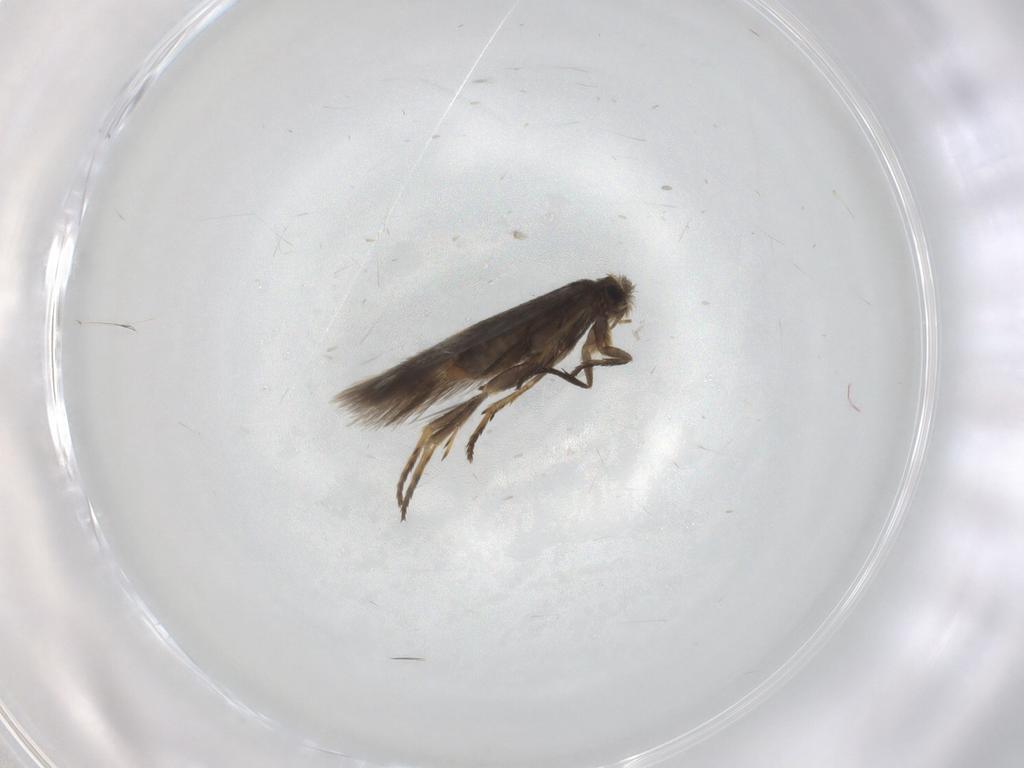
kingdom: Animalia
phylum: Arthropoda
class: Insecta
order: Lepidoptera
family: Nepticulidae
